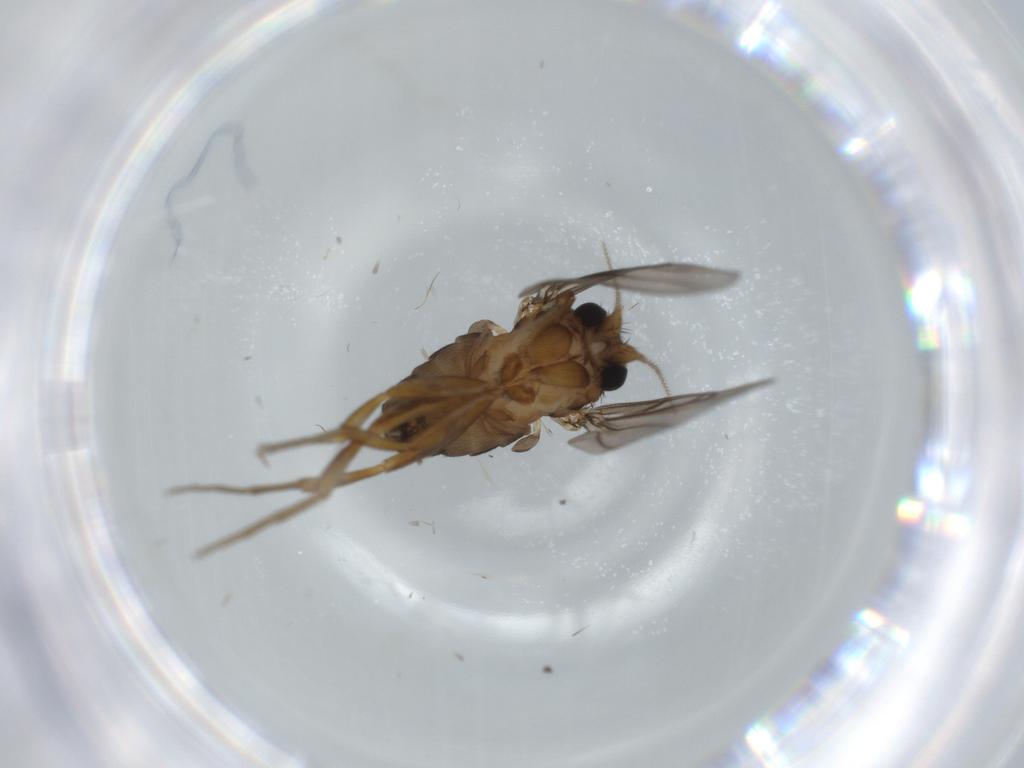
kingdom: Animalia
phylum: Arthropoda
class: Insecta
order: Diptera
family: Phoridae
